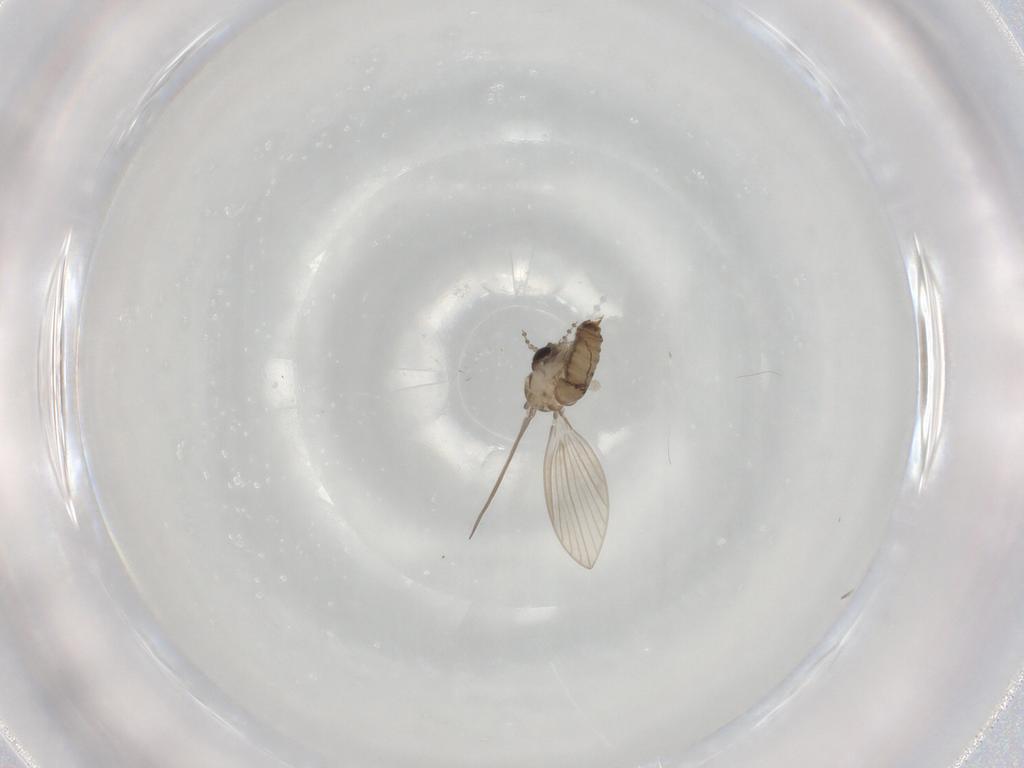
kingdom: Animalia
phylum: Arthropoda
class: Insecta
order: Diptera
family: Psychodidae
